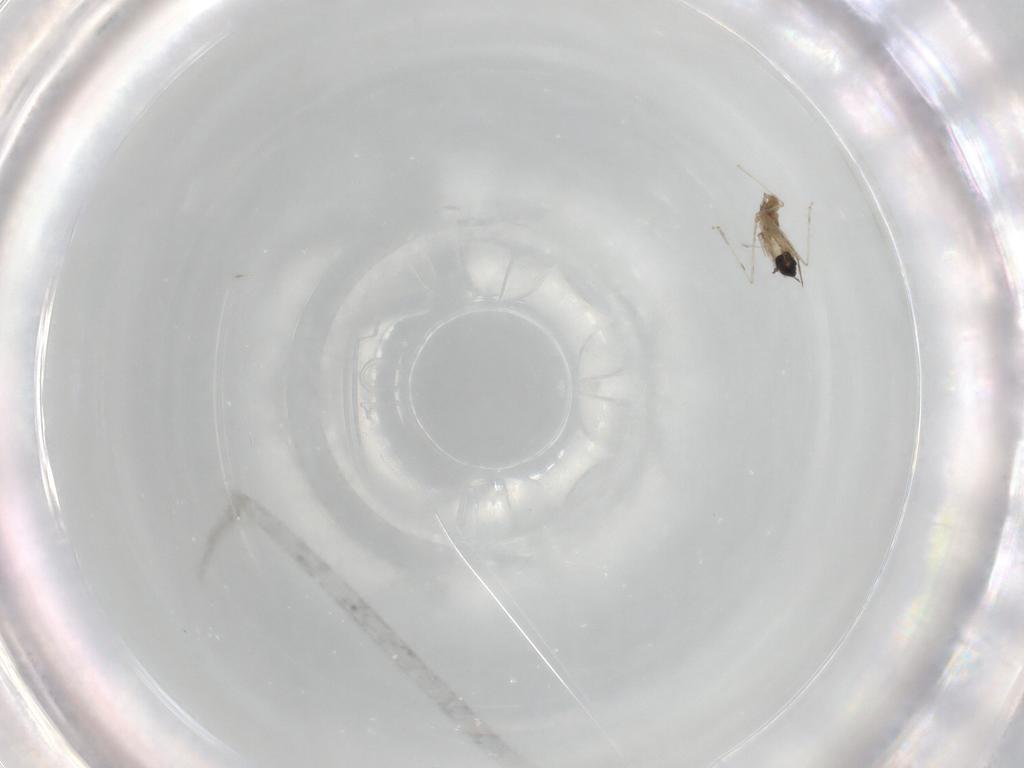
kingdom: Animalia
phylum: Arthropoda
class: Insecta
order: Diptera
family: Cecidomyiidae
